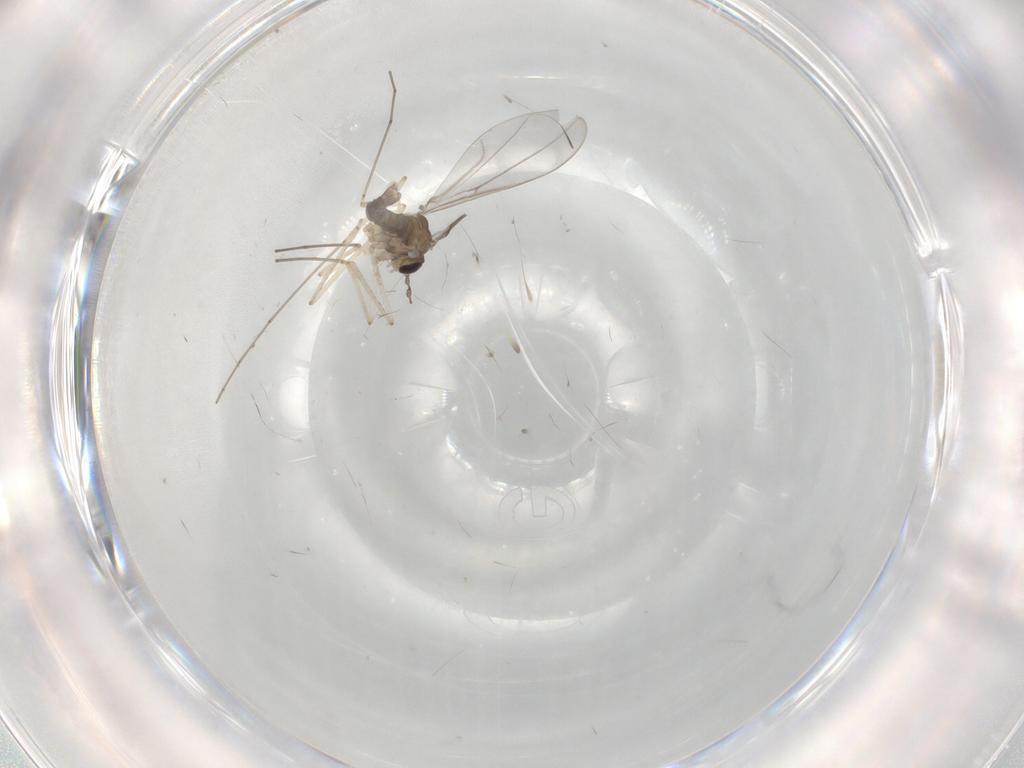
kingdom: Animalia
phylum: Arthropoda
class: Insecta
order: Diptera
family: Cecidomyiidae
